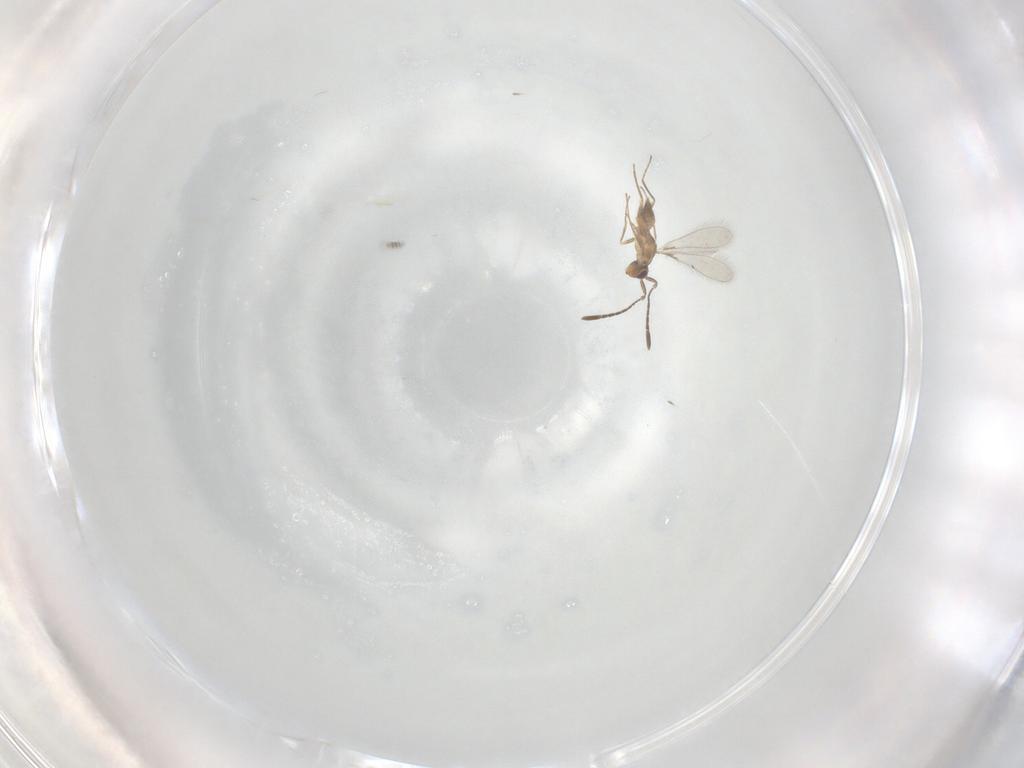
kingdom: Animalia
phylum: Arthropoda
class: Insecta
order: Hymenoptera
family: Mymaridae
